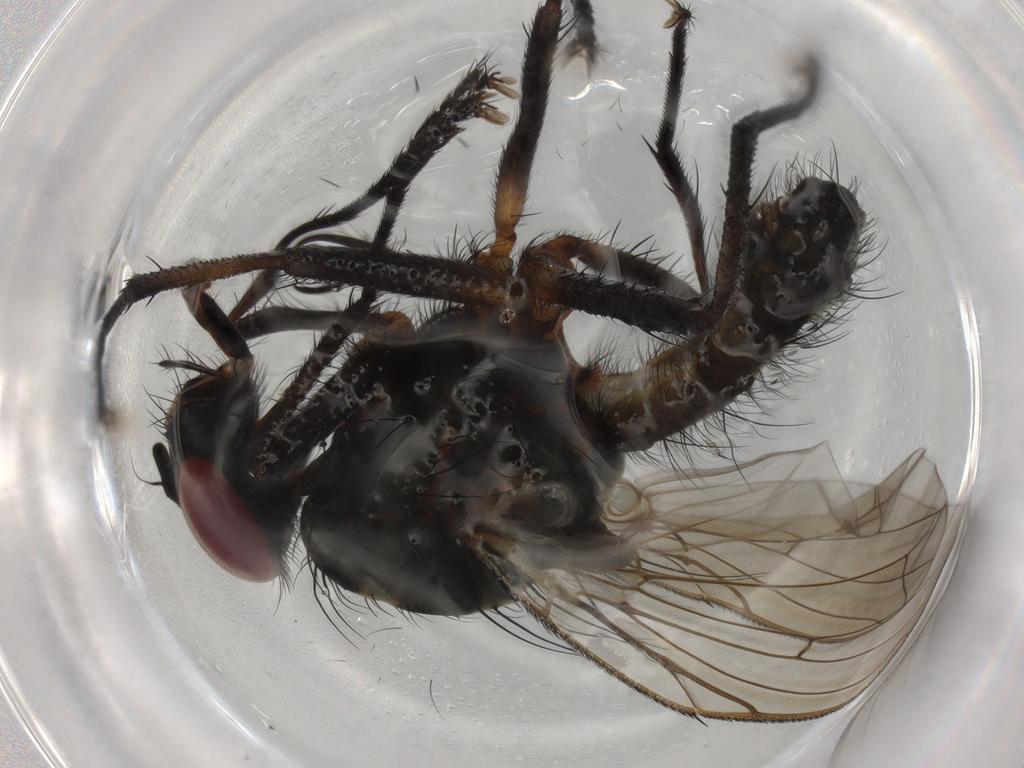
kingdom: Animalia
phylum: Arthropoda
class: Insecta
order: Diptera
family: Anthomyiidae
